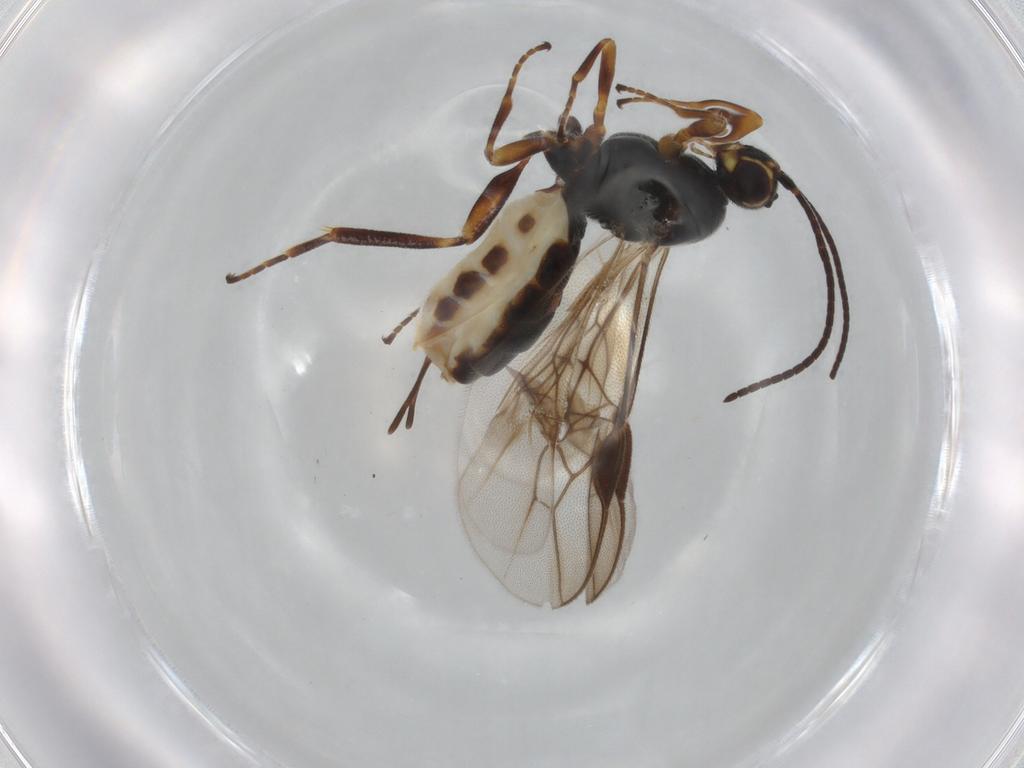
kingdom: Animalia
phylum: Arthropoda
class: Insecta
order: Hymenoptera
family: Braconidae
